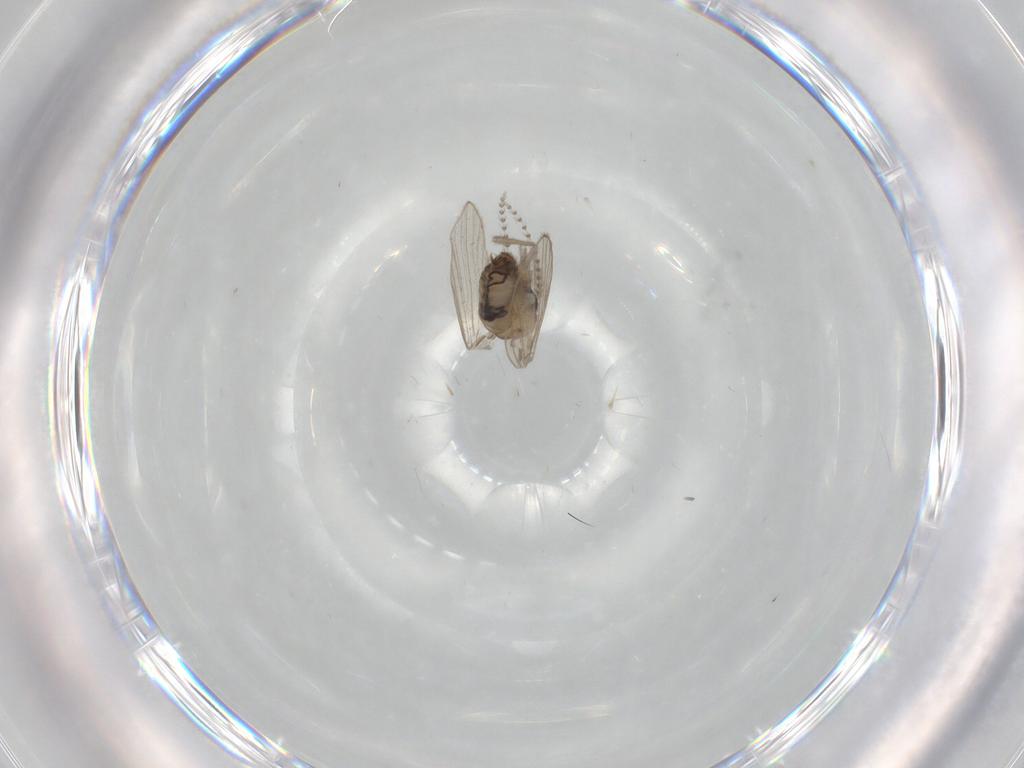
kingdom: Animalia
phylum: Arthropoda
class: Insecta
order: Diptera
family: Psychodidae
